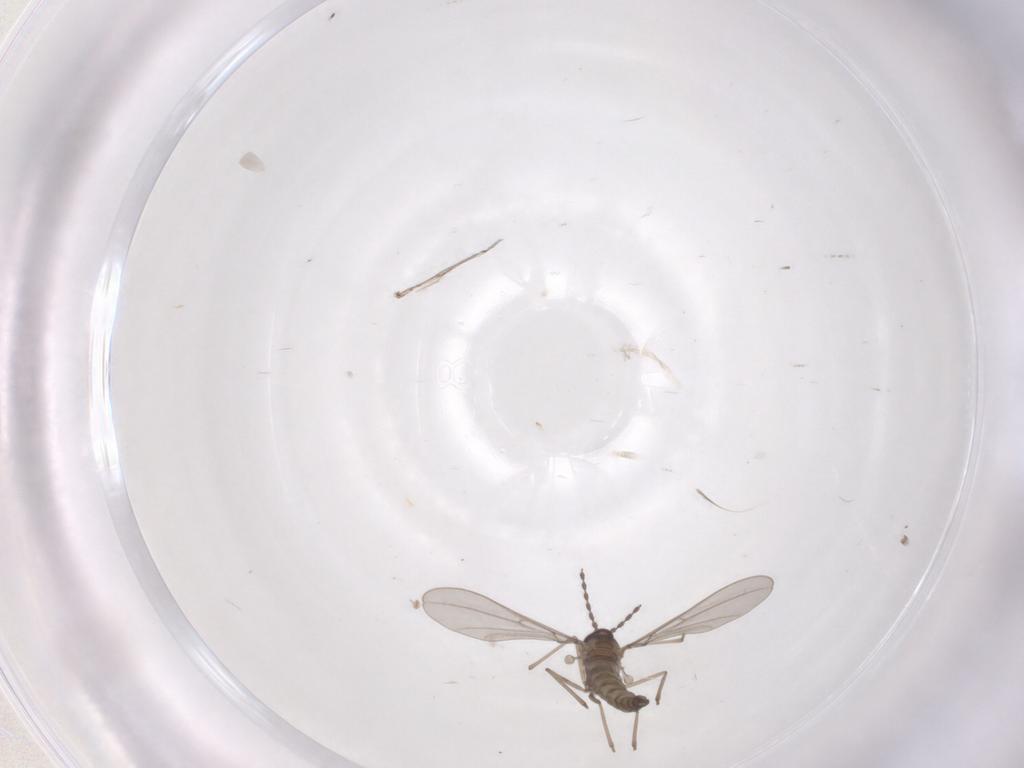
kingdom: Animalia
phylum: Arthropoda
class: Insecta
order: Diptera
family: Cecidomyiidae
